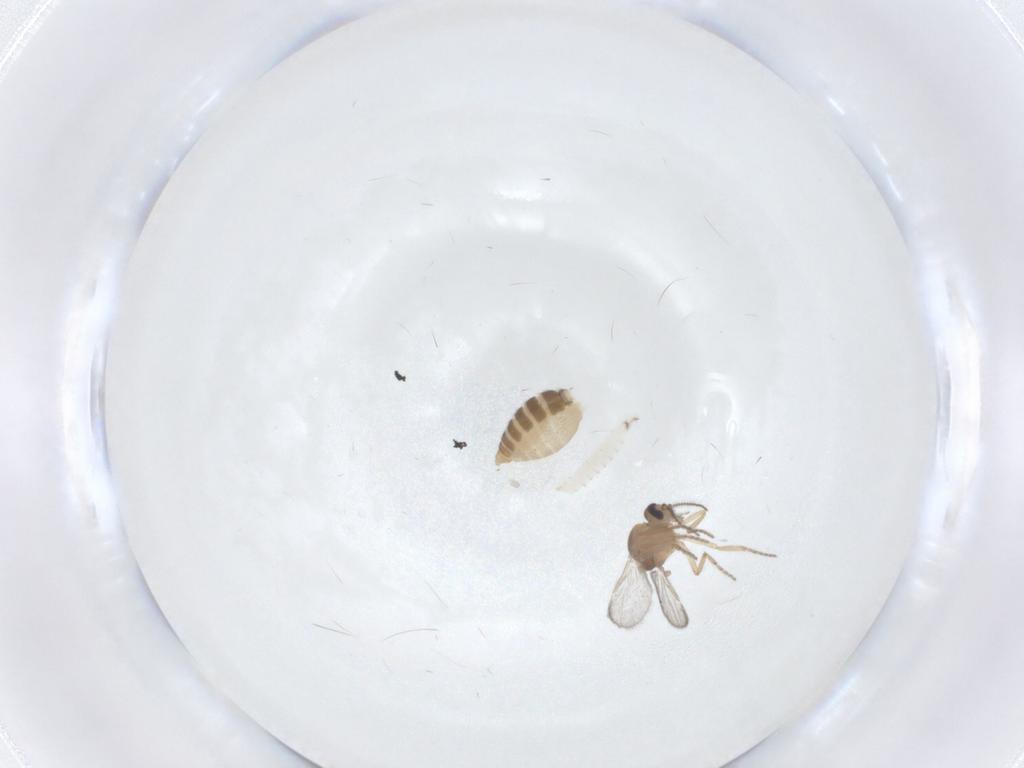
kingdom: Animalia
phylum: Arthropoda
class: Insecta
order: Diptera
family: Ceratopogonidae
